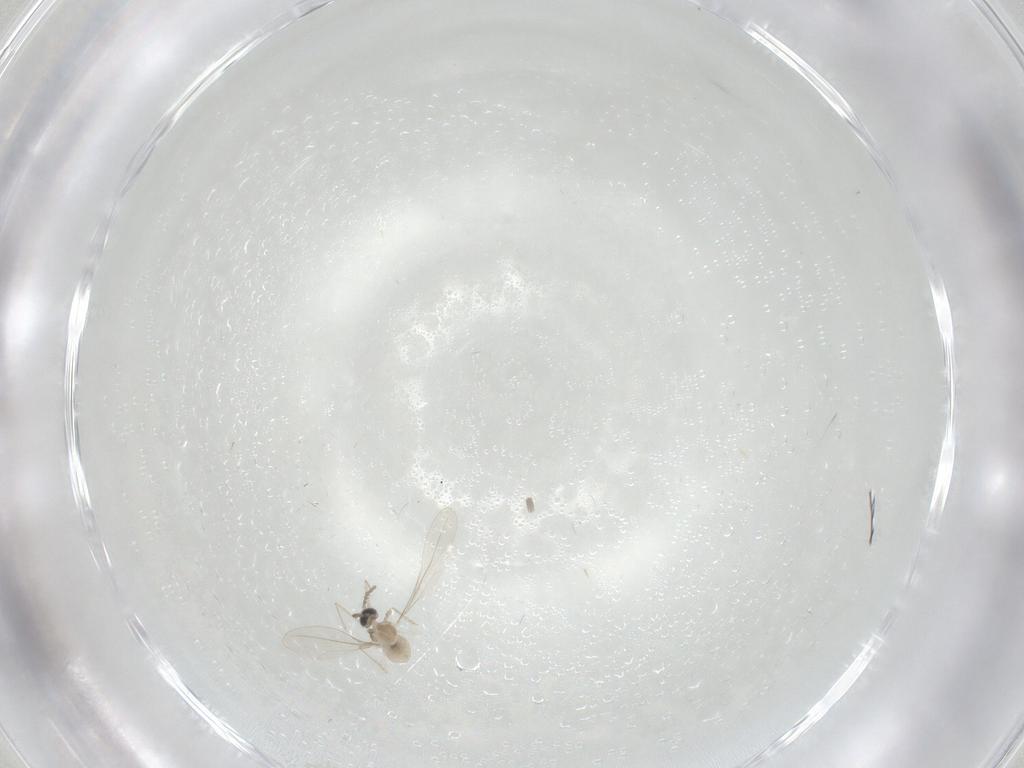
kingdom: Animalia
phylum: Arthropoda
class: Insecta
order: Diptera
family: Cecidomyiidae
